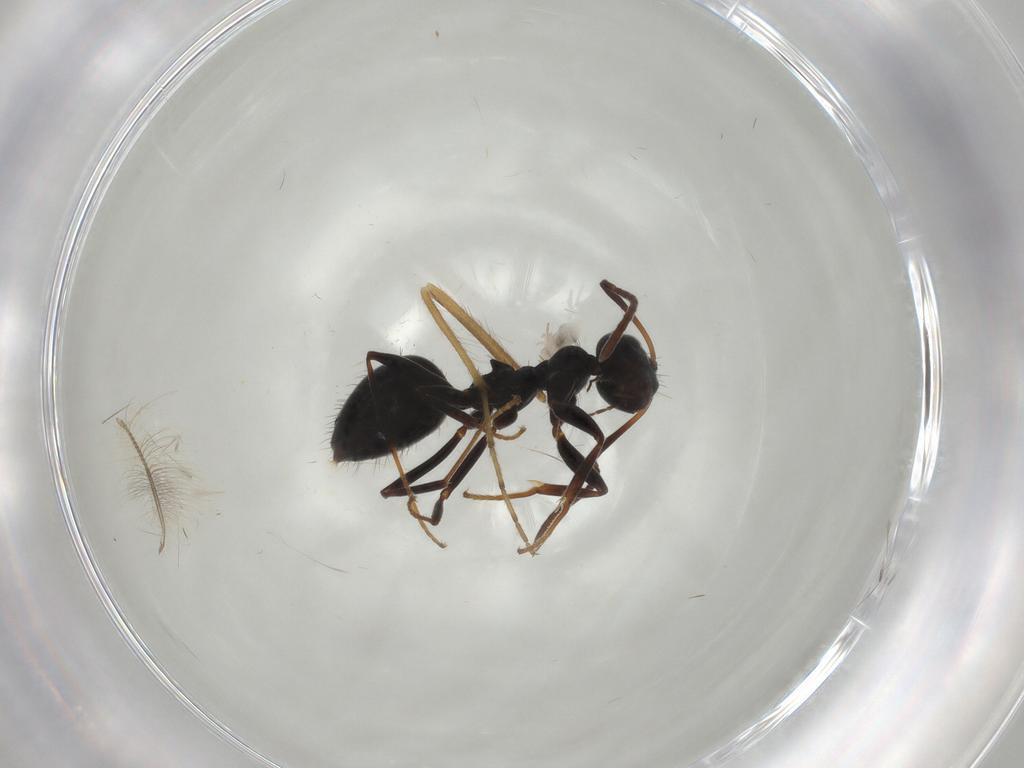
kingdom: Animalia
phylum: Arthropoda
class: Insecta
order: Hymenoptera
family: Formicidae
